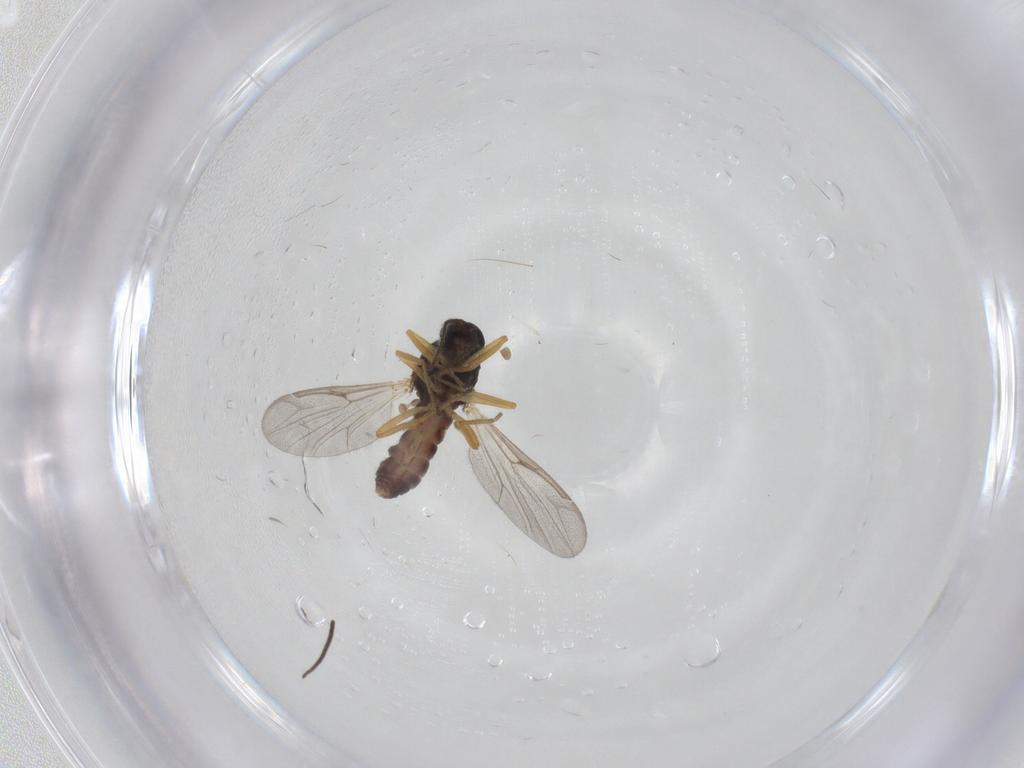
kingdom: Animalia
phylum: Arthropoda
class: Insecta
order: Diptera
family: Ceratopogonidae
